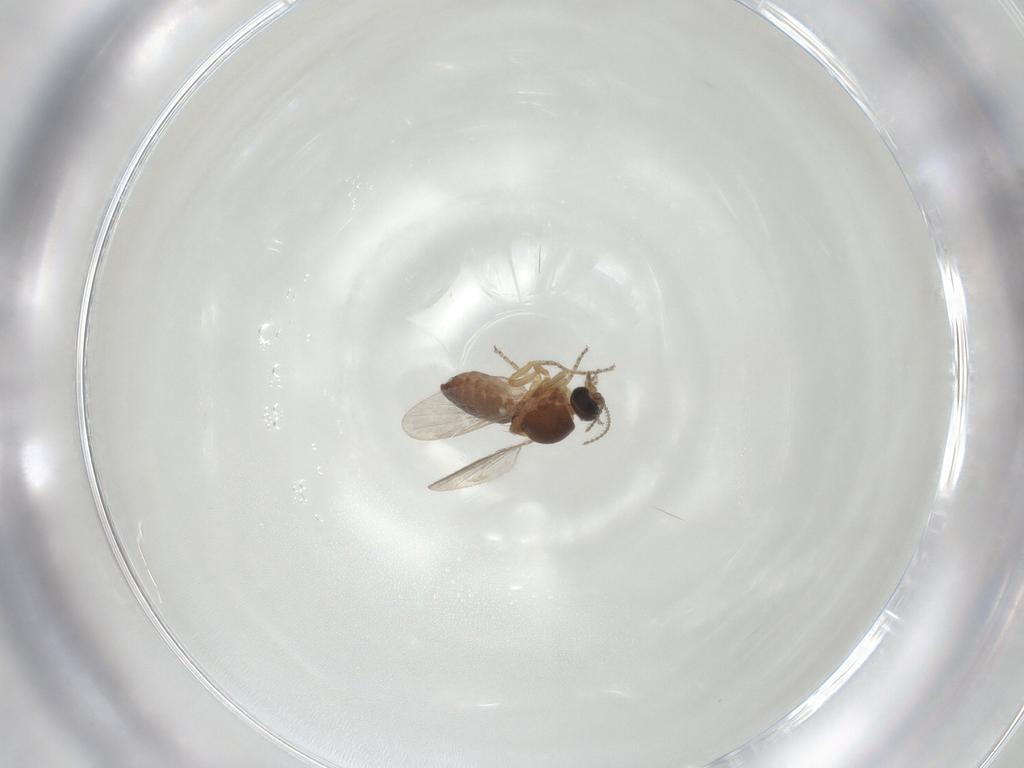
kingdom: Animalia
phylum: Arthropoda
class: Insecta
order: Diptera
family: Ceratopogonidae
